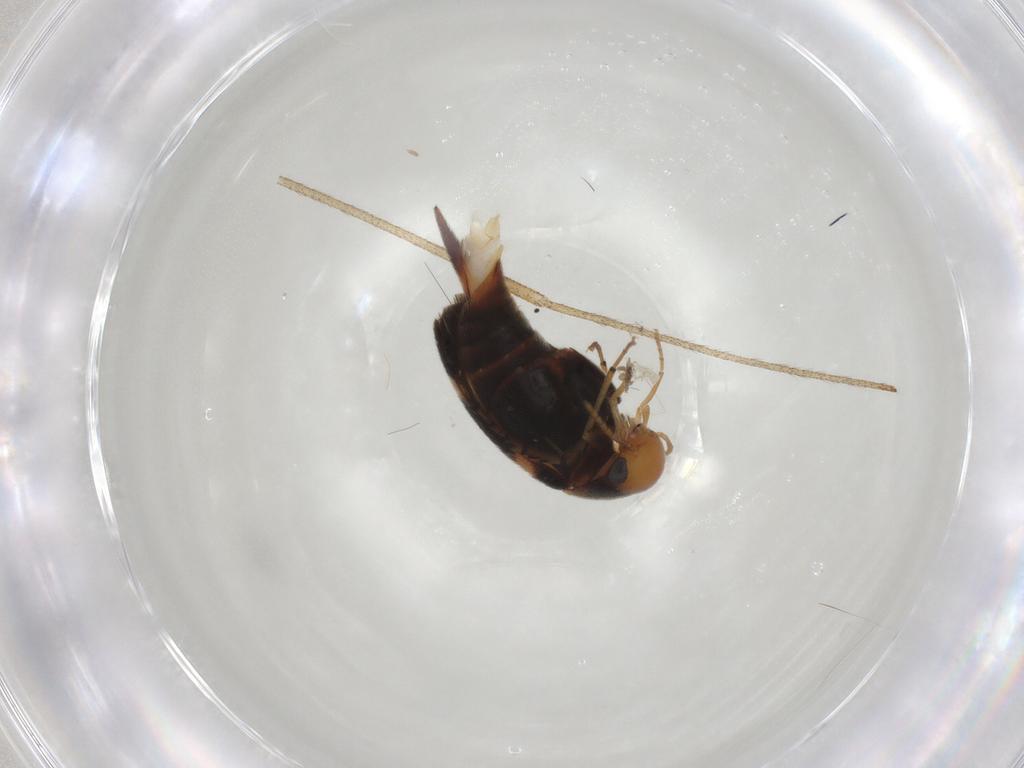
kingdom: Animalia
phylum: Arthropoda
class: Insecta
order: Coleoptera
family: Mordellidae
